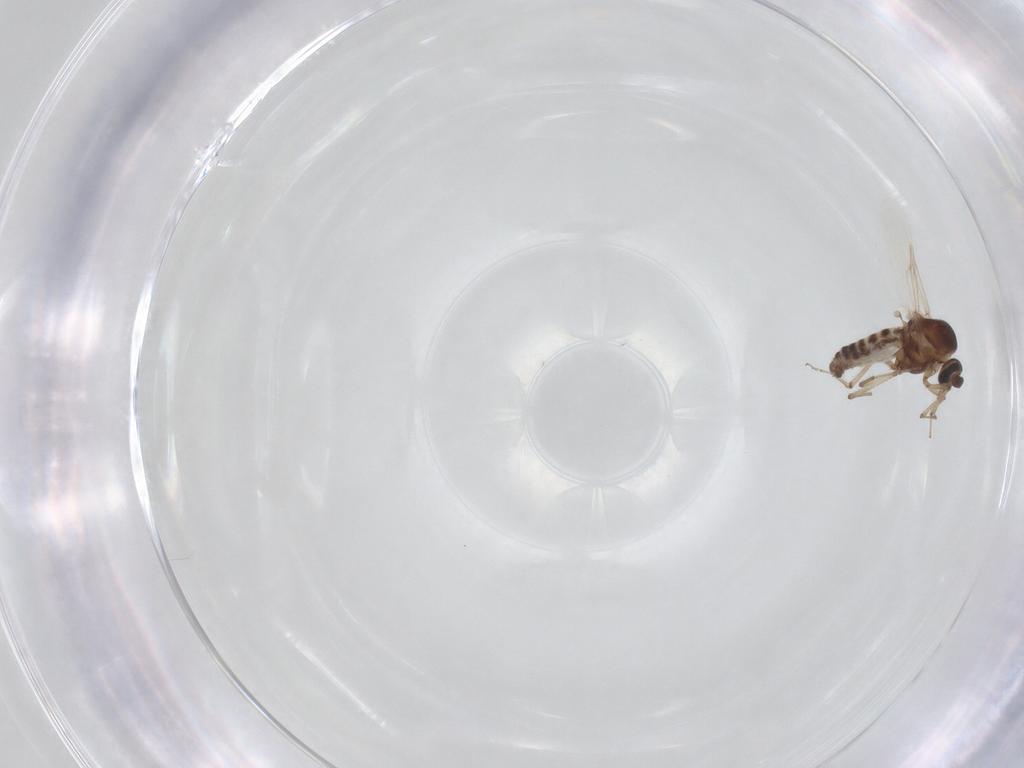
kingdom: Animalia
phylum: Arthropoda
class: Insecta
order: Diptera
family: Ceratopogonidae
